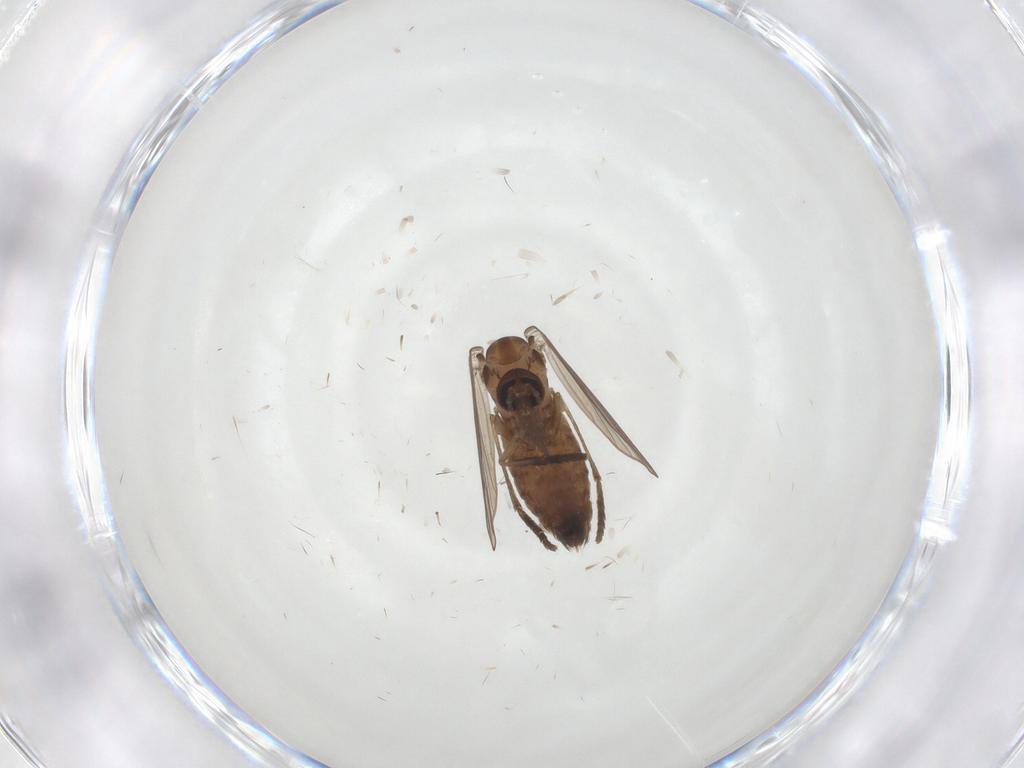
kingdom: Animalia
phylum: Arthropoda
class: Insecta
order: Diptera
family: Psychodidae
